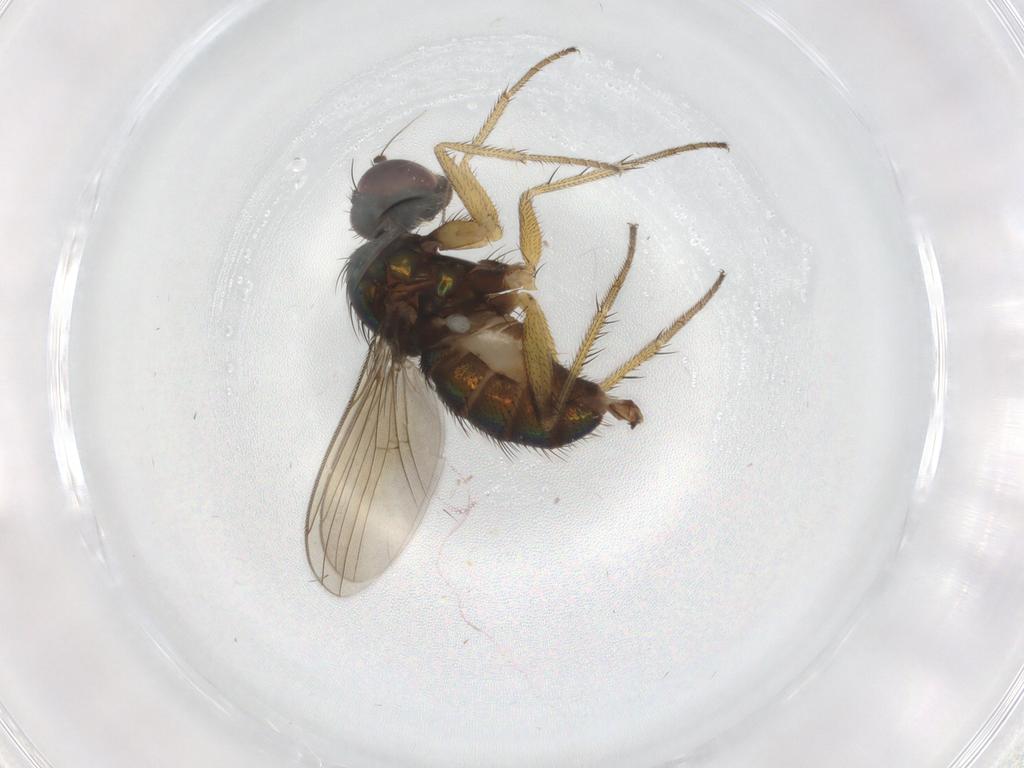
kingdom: Animalia
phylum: Arthropoda
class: Insecta
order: Diptera
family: Dolichopodidae
